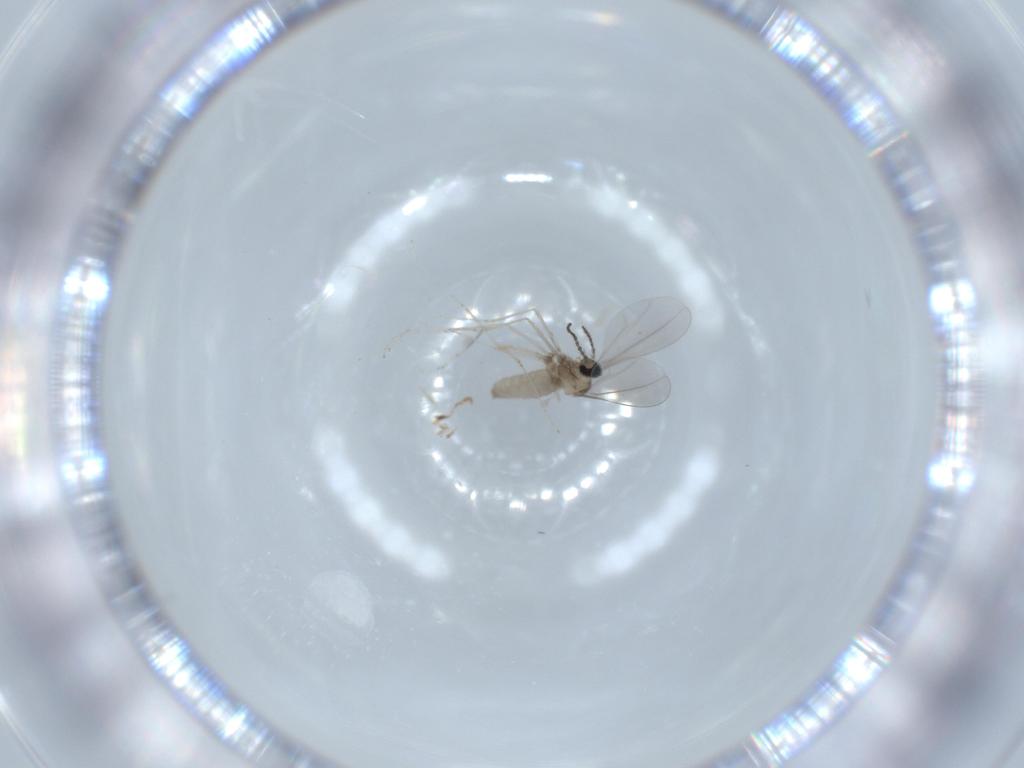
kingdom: Animalia
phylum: Arthropoda
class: Insecta
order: Diptera
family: Cecidomyiidae
